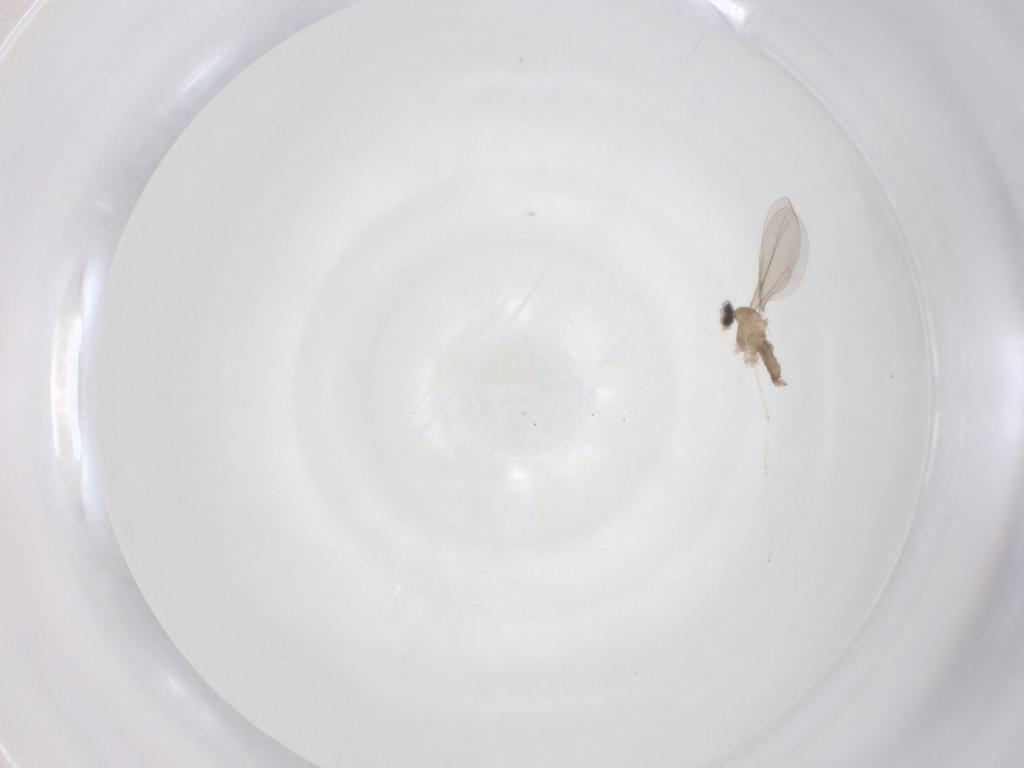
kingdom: Animalia
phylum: Arthropoda
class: Insecta
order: Diptera
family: Cecidomyiidae
